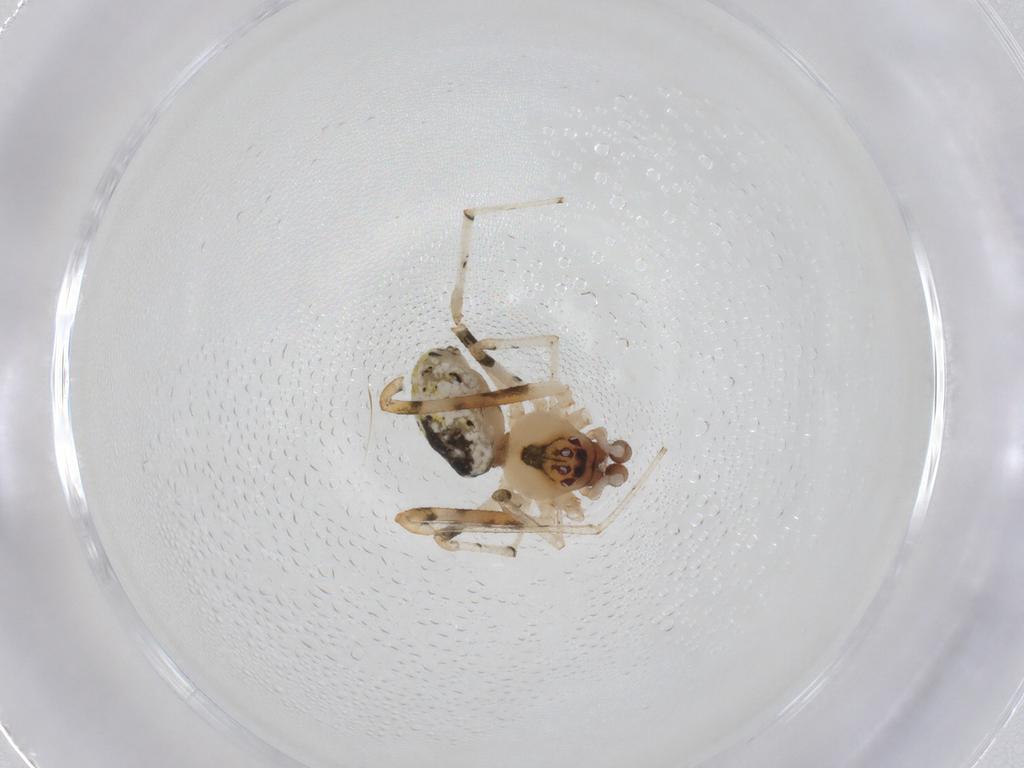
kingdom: Animalia
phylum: Arthropoda
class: Arachnida
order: Araneae
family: Theridiidae
